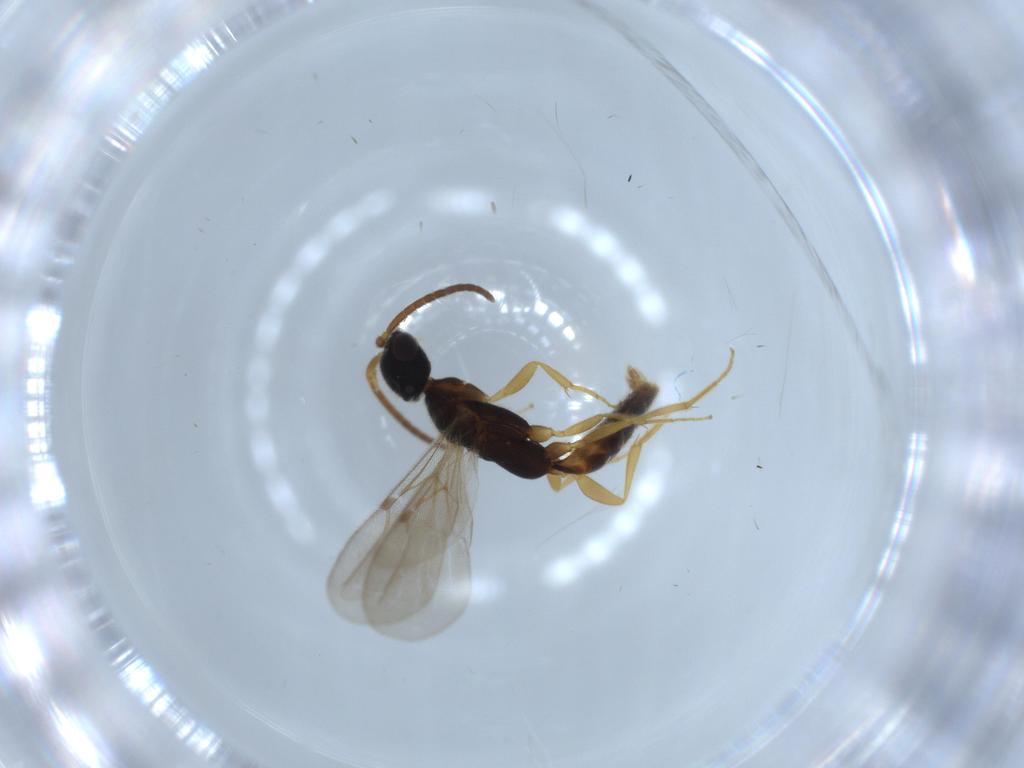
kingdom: Animalia
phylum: Arthropoda
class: Insecta
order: Hymenoptera
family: Bethylidae
